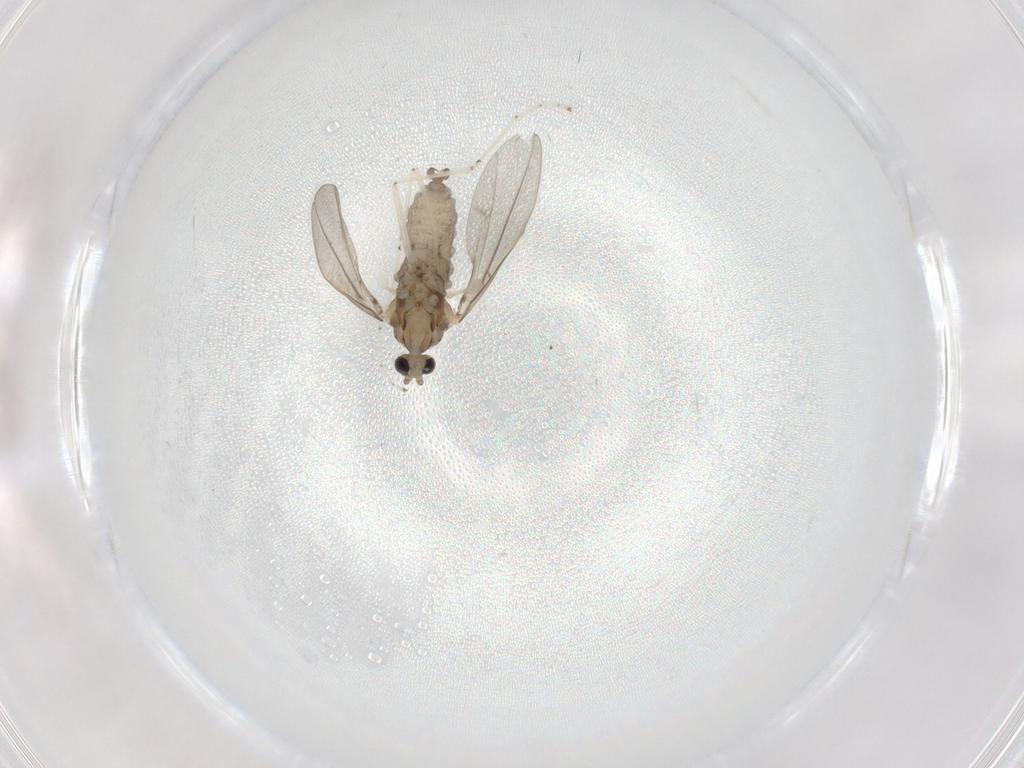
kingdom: Animalia
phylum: Arthropoda
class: Insecta
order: Diptera
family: Cecidomyiidae
